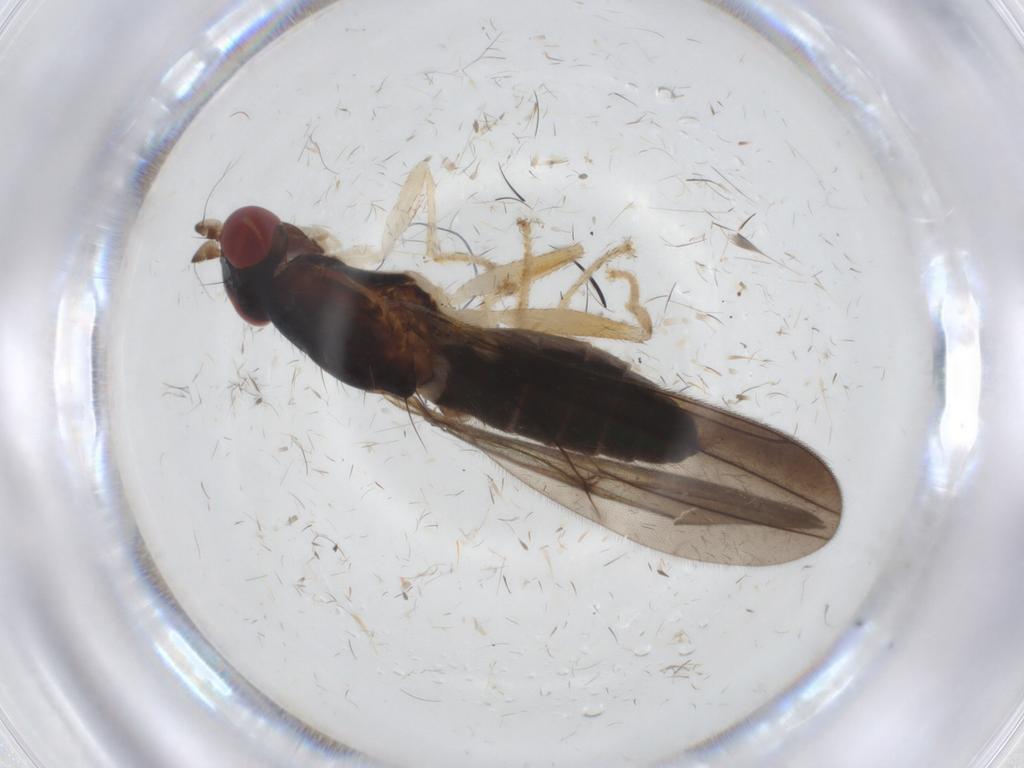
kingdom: Animalia
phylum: Arthropoda
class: Insecta
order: Diptera
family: Aulacigastridae
